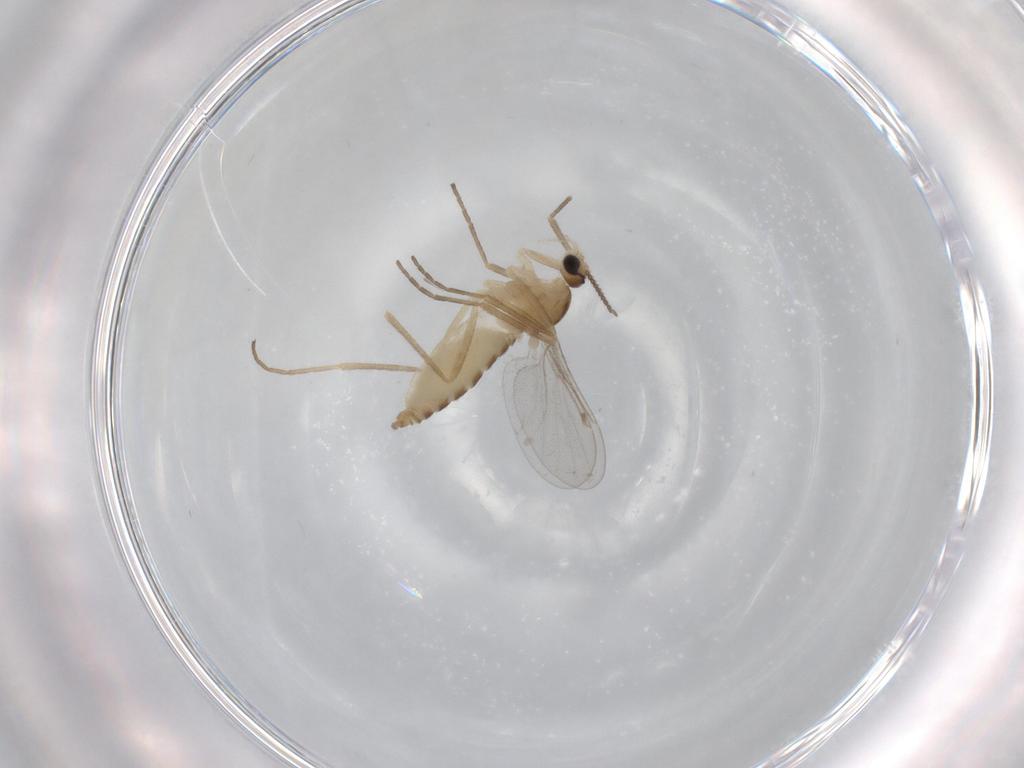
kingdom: Animalia
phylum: Arthropoda
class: Insecta
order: Diptera
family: Cecidomyiidae
